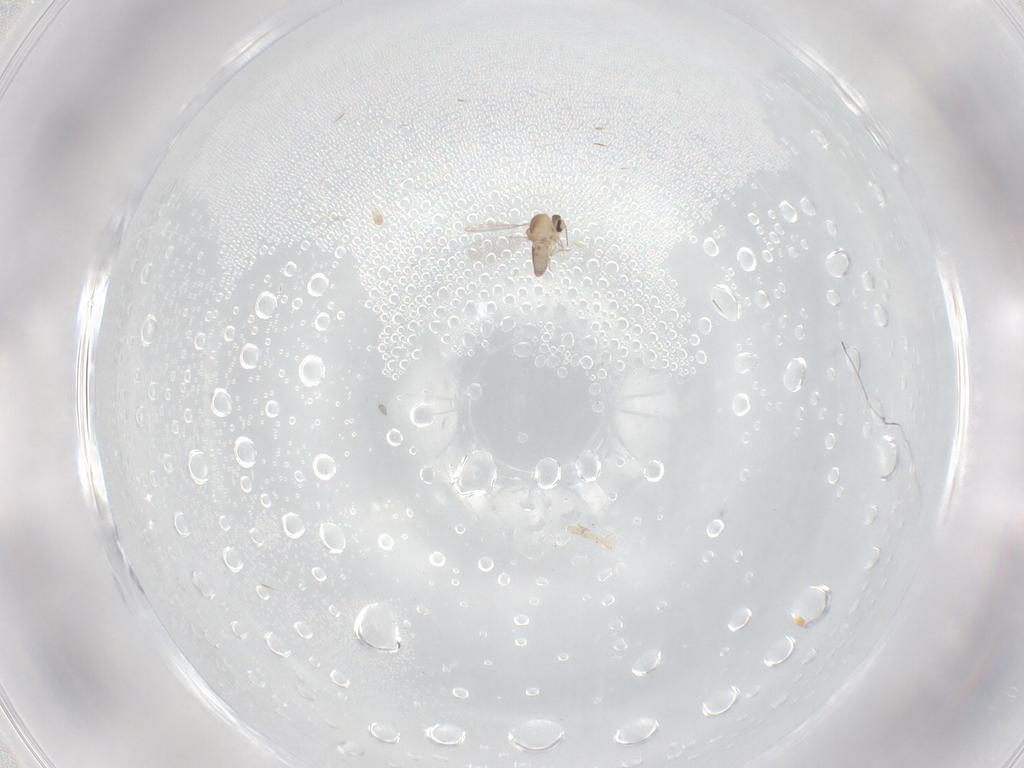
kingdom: Animalia
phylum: Arthropoda
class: Insecta
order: Diptera
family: Ceratopogonidae
